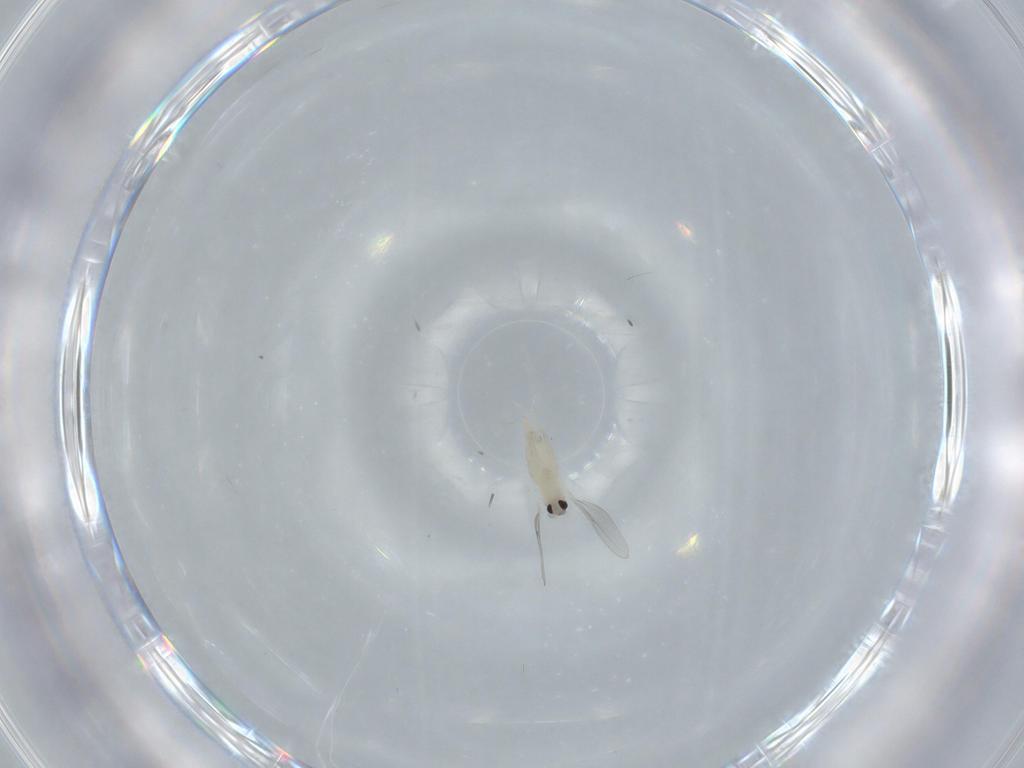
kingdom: Animalia
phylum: Arthropoda
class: Insecta
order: Diptera
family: Cecidomyiidae
